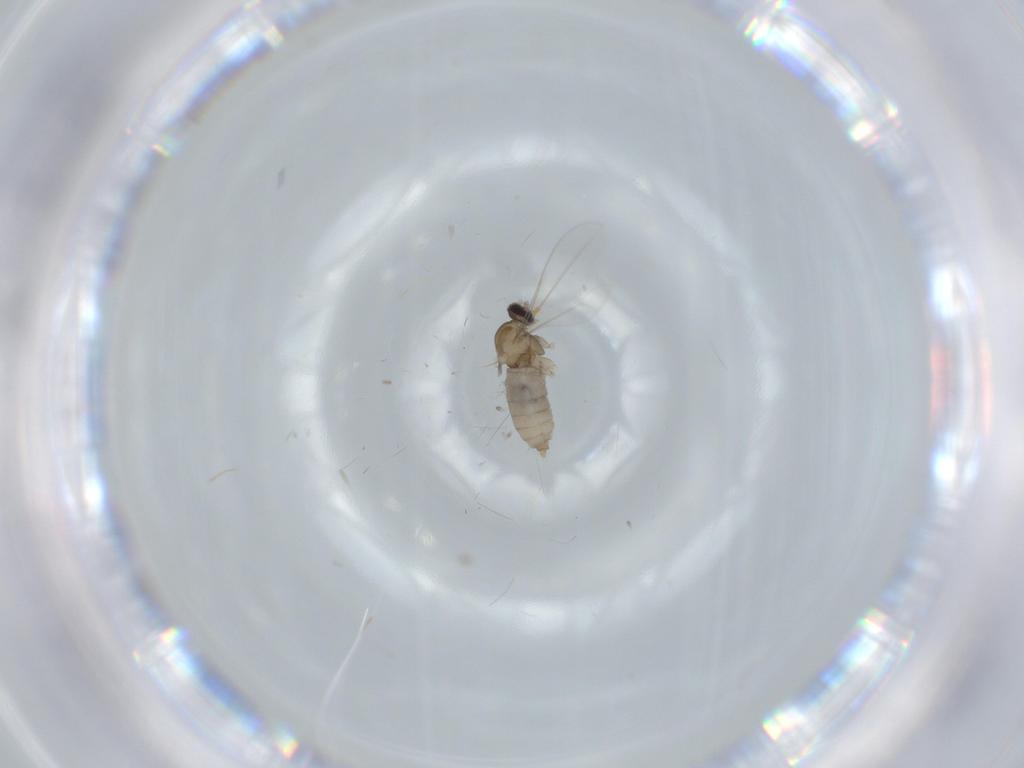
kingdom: Animalia
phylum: Arthropoda
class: Insecta
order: Diptera
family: Cecidomyiidae
